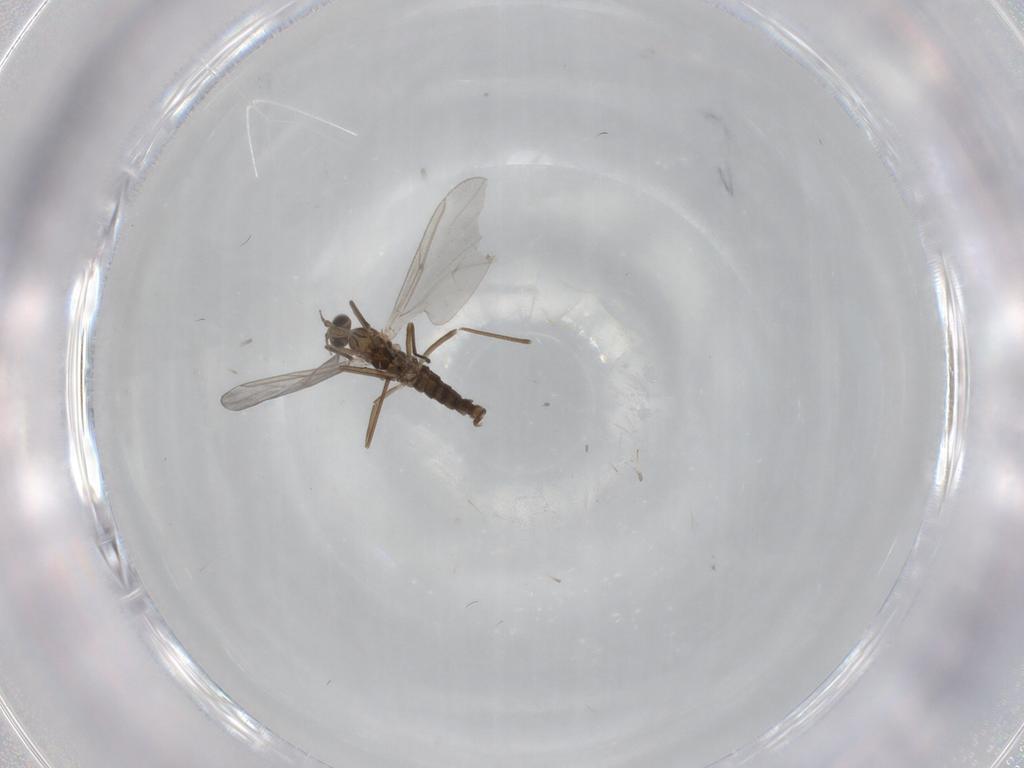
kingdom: Animalia
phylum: Arthropoda
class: Insecta
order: Diptera
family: Cecidomyiidae
